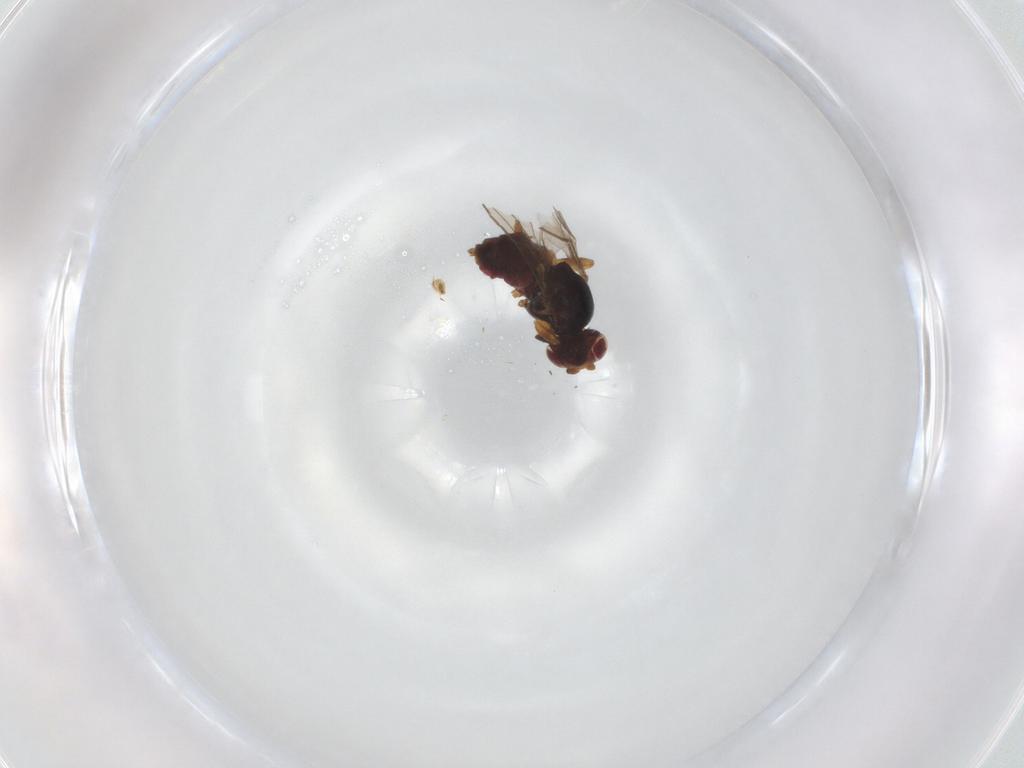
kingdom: Animalia
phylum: Arthropoda
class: Insecta
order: Diptera
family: Chloropidae
